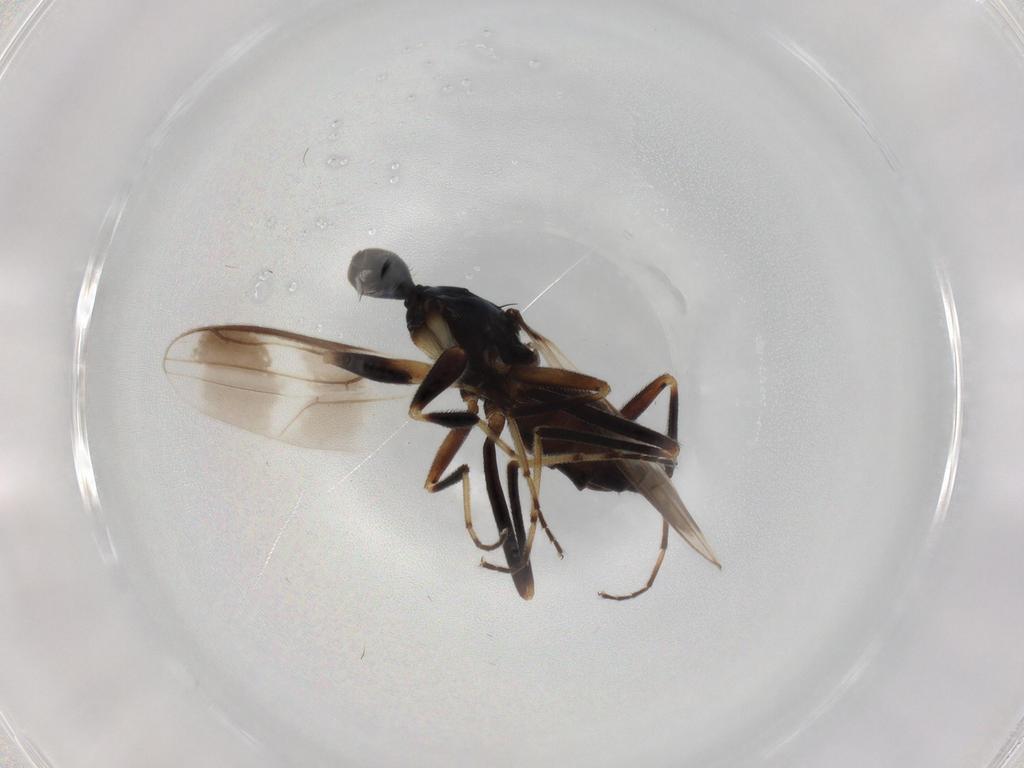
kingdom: Animalia
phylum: Arthropoda
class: Insecta
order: Diptera
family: Hybotidae
